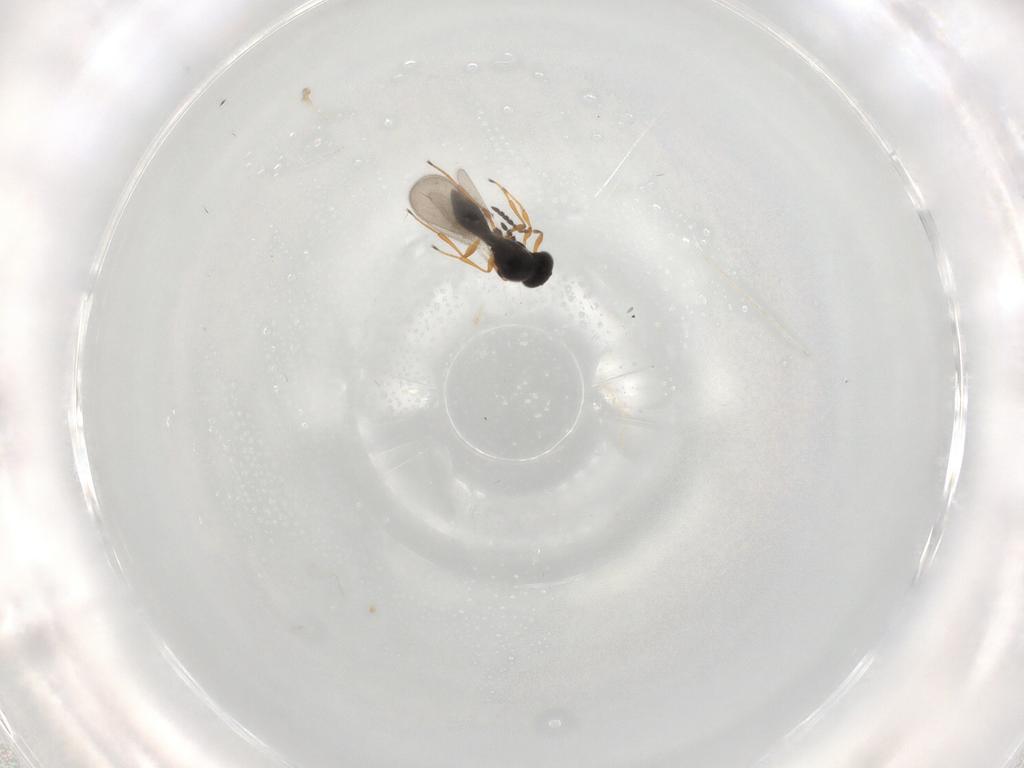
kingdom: Animalia
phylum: Arthropoda
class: Insecta
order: Hymenoptera
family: Platygastridae
